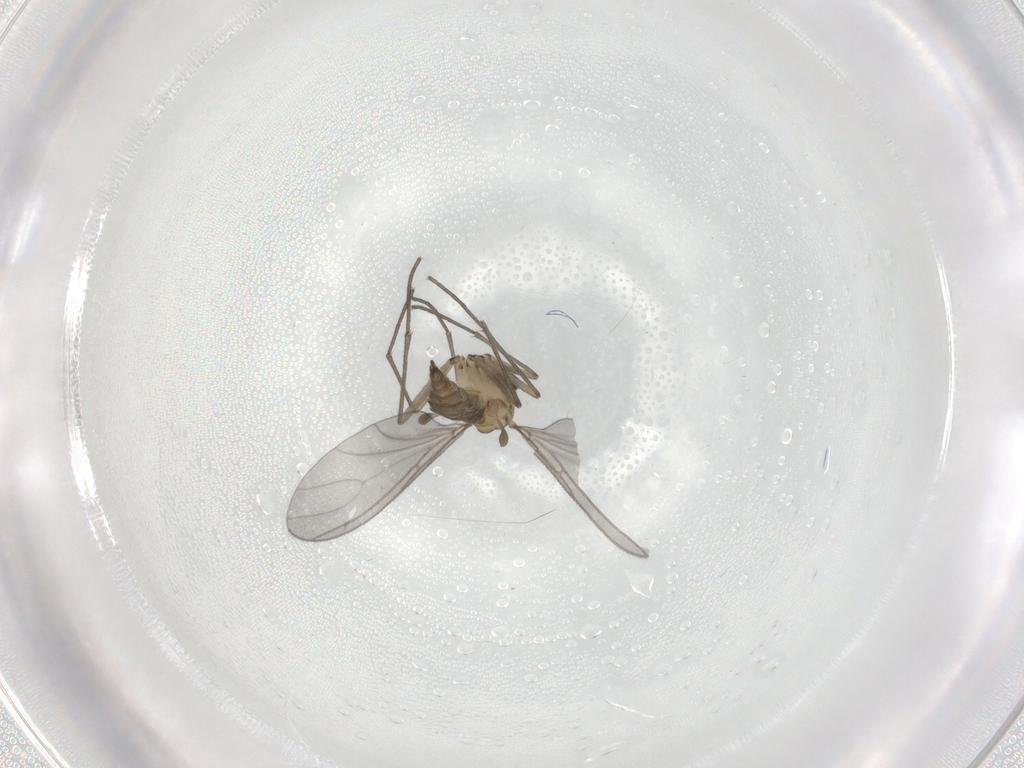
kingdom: Animalia
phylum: Arthropoda
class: Insecta
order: Diptera
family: Sciaridae
